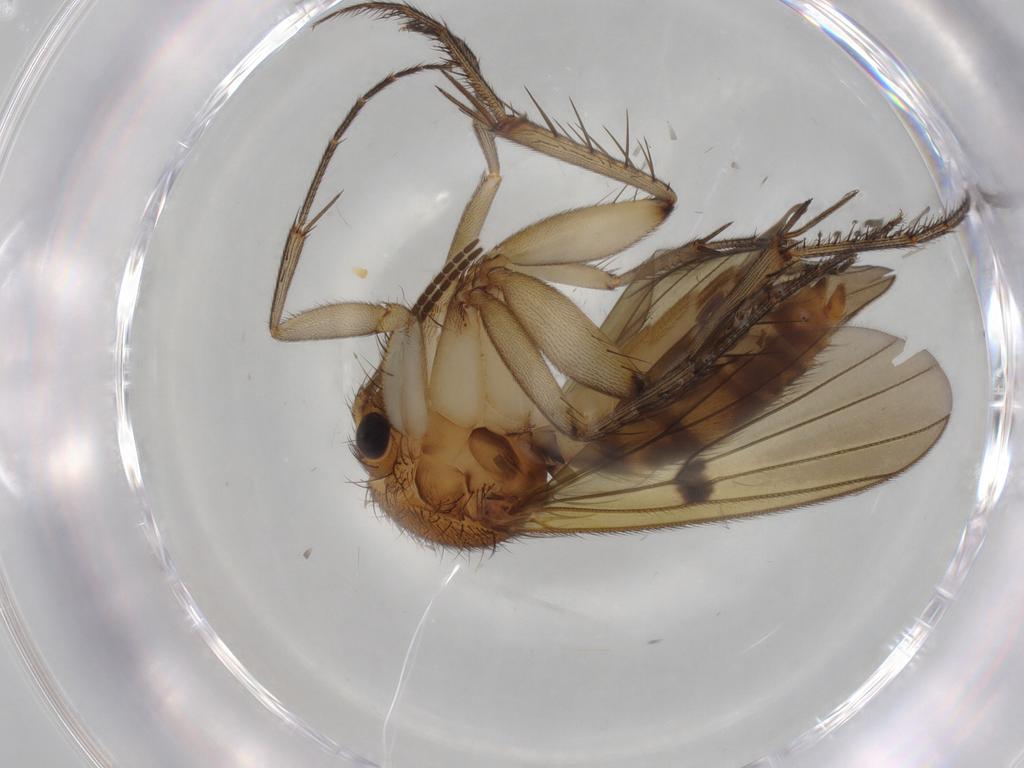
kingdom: Animalia
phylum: Arthropoda
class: Insecta
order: Diptera
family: Mycetophilidae
